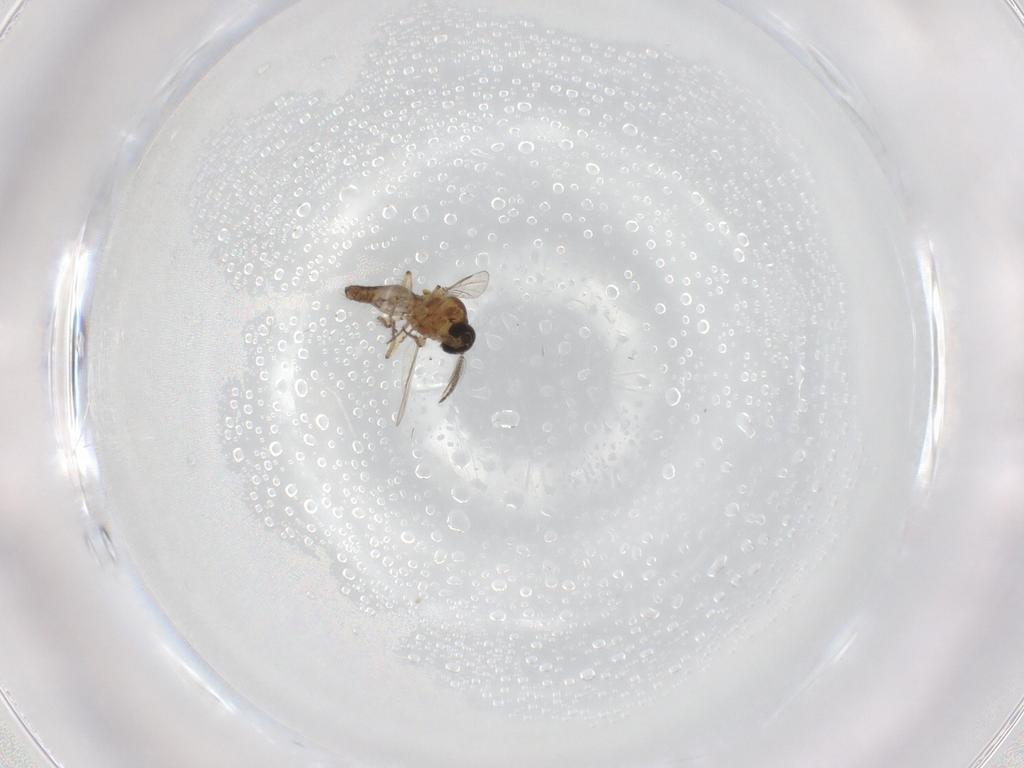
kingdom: Animalia
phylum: Arthropoda
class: Insecta
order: Diptera
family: Ceratopogonidae
